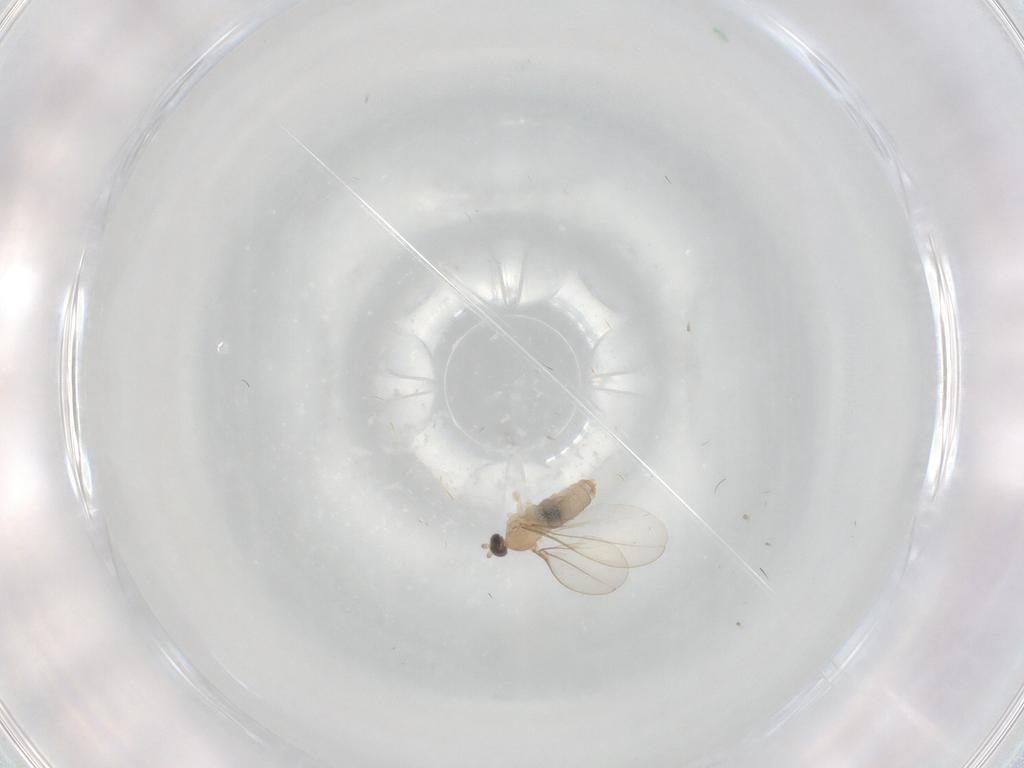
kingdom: Animalia
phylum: Arthropoda
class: Insecta
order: Diptera
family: Cecidomyiidae
